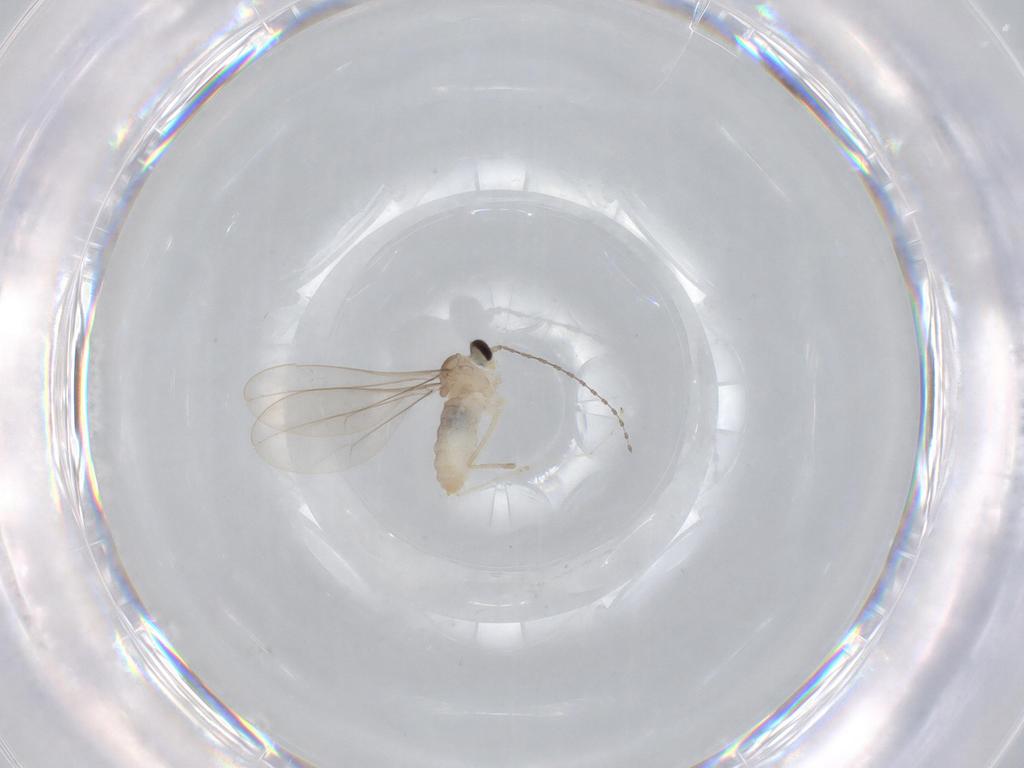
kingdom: Animalia
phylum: Arthropoda
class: Insecta
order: Diptera
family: Cecidomyiidae
